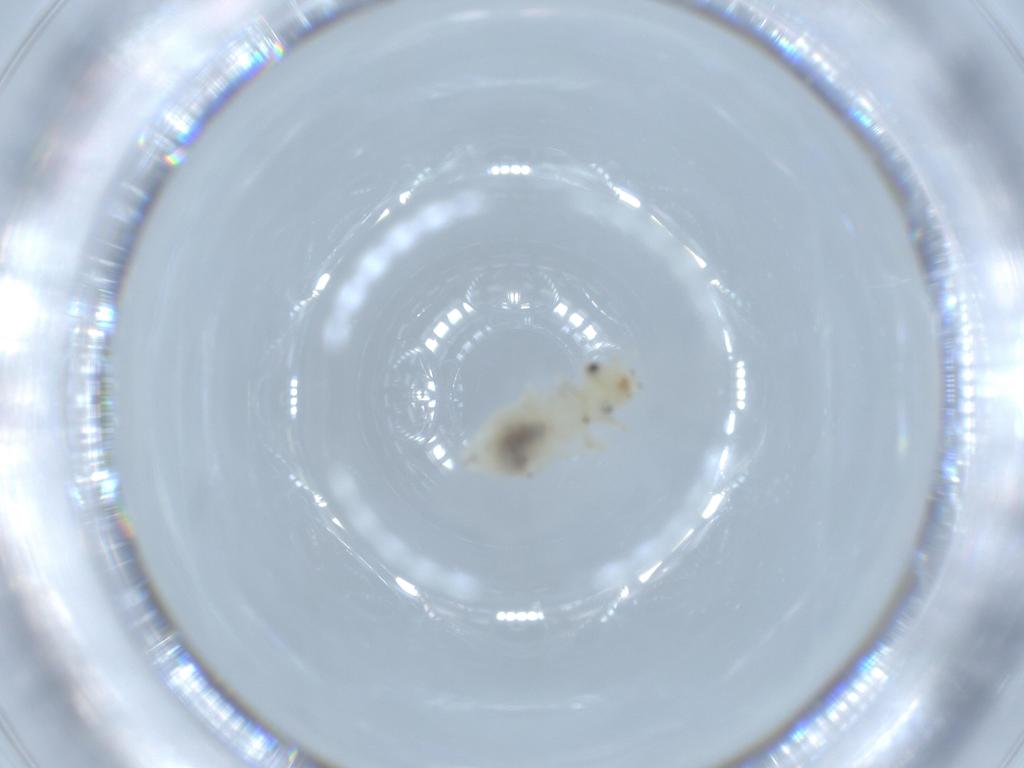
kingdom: Animalia
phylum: Arthropoda
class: Insecta
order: Psocodea
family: Caeciliusidae
